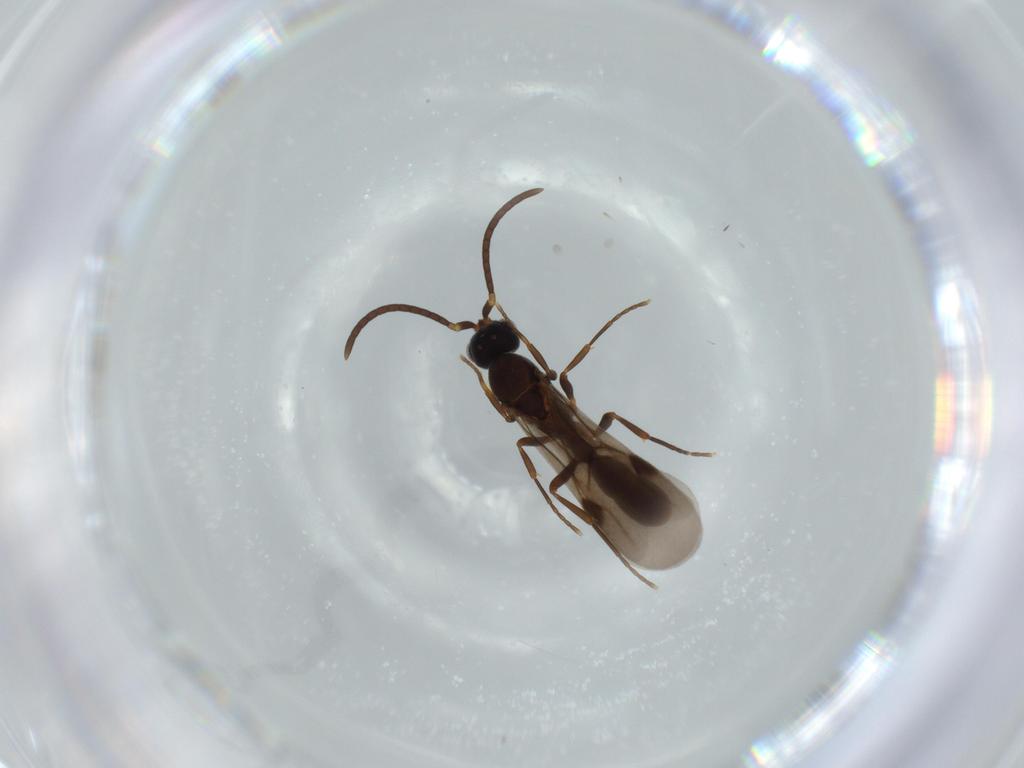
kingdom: Animalia
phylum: Arthropoda
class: Insecta
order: Hymenoptera
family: Formicidae
